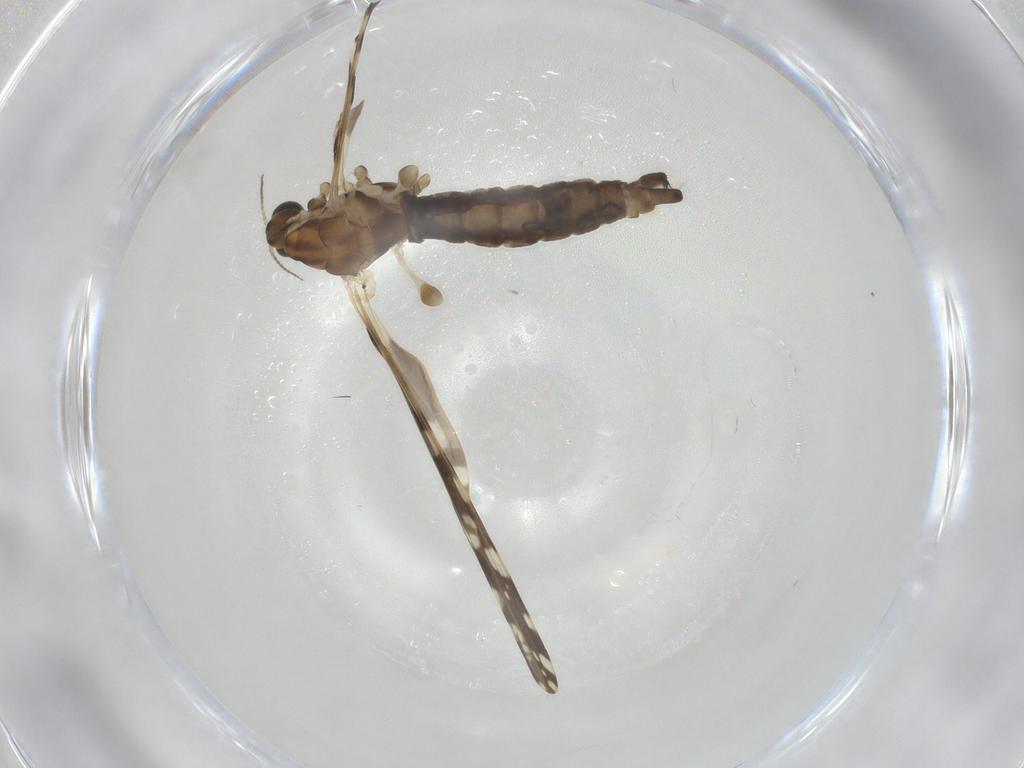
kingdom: Animalia
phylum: Arthropoda
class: Insecta
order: Diptera
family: Limoniidae
